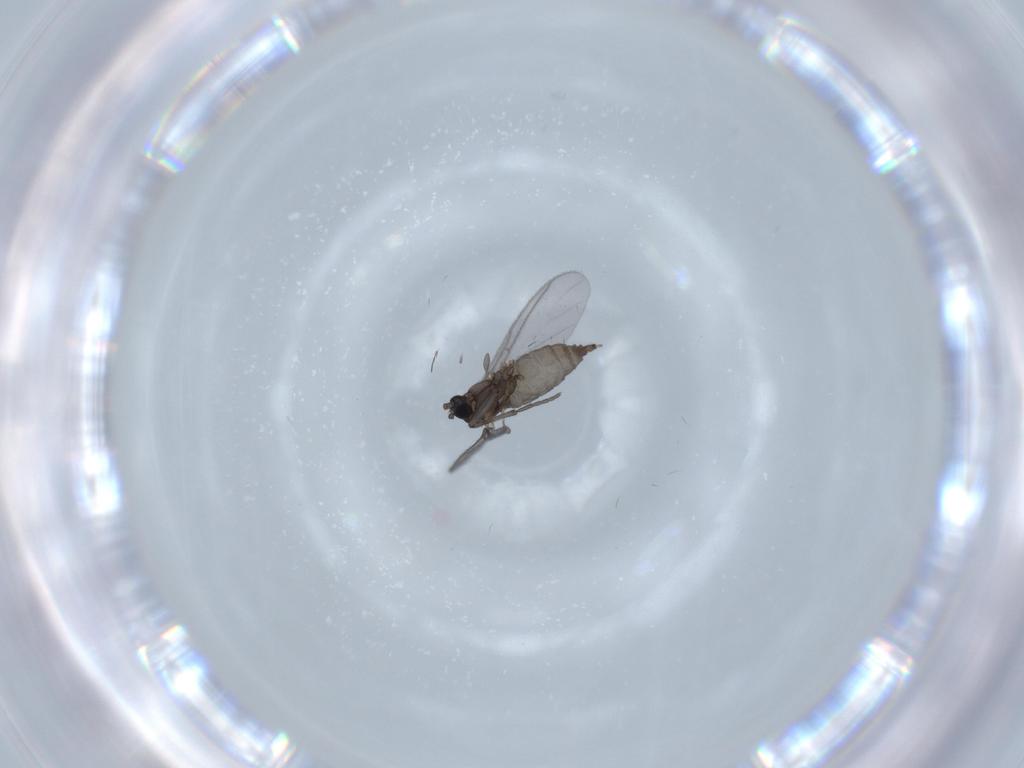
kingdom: Animalia
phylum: Arthropoda
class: Insecta
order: Diptera
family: Sciaridae
